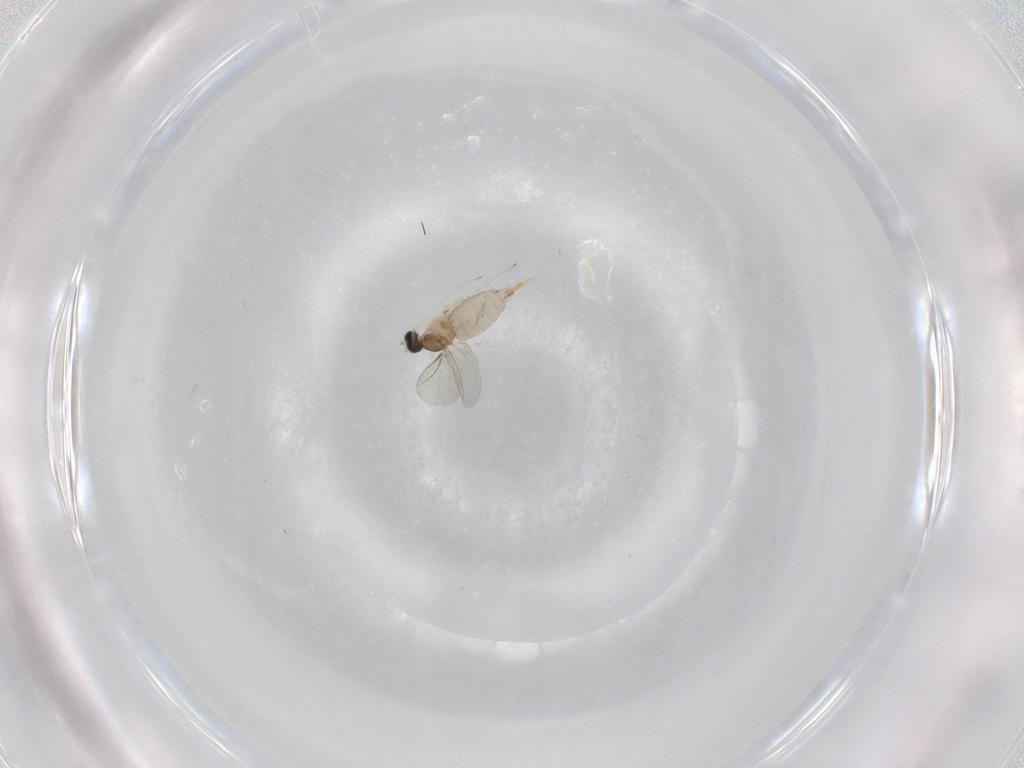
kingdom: Animalia
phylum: Arthropoda
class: Insecta
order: Diptera
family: Cecidomyiidae
